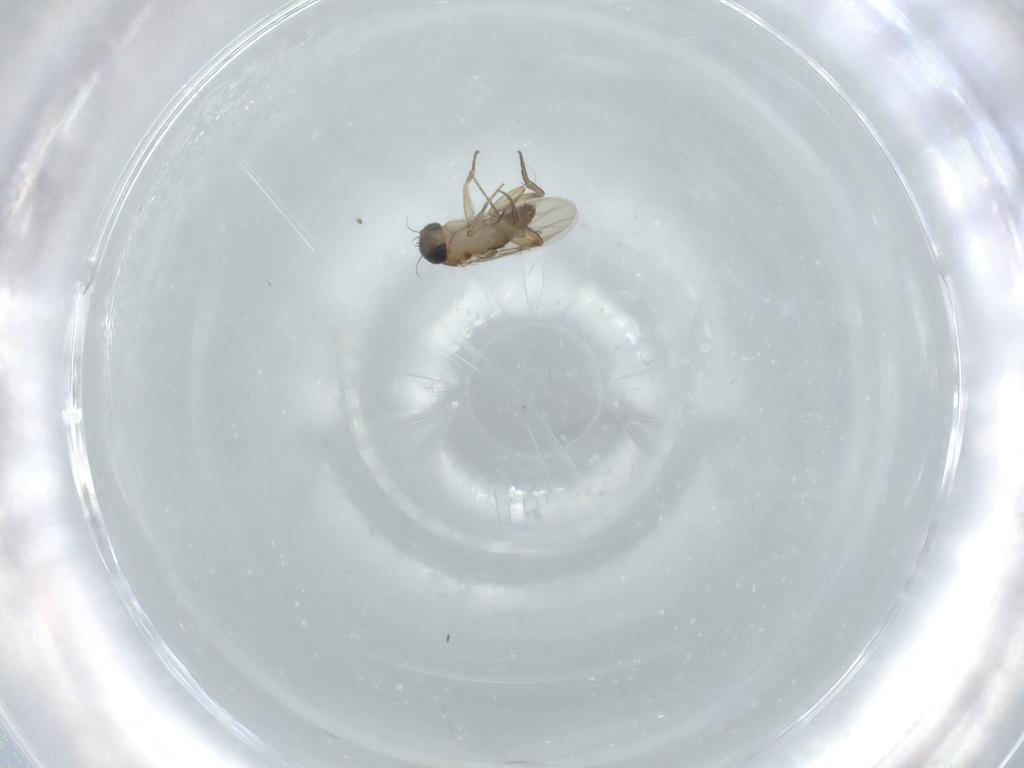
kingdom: Animalia
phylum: Arthropoda
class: Insecta
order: Diptera
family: Phoridae
